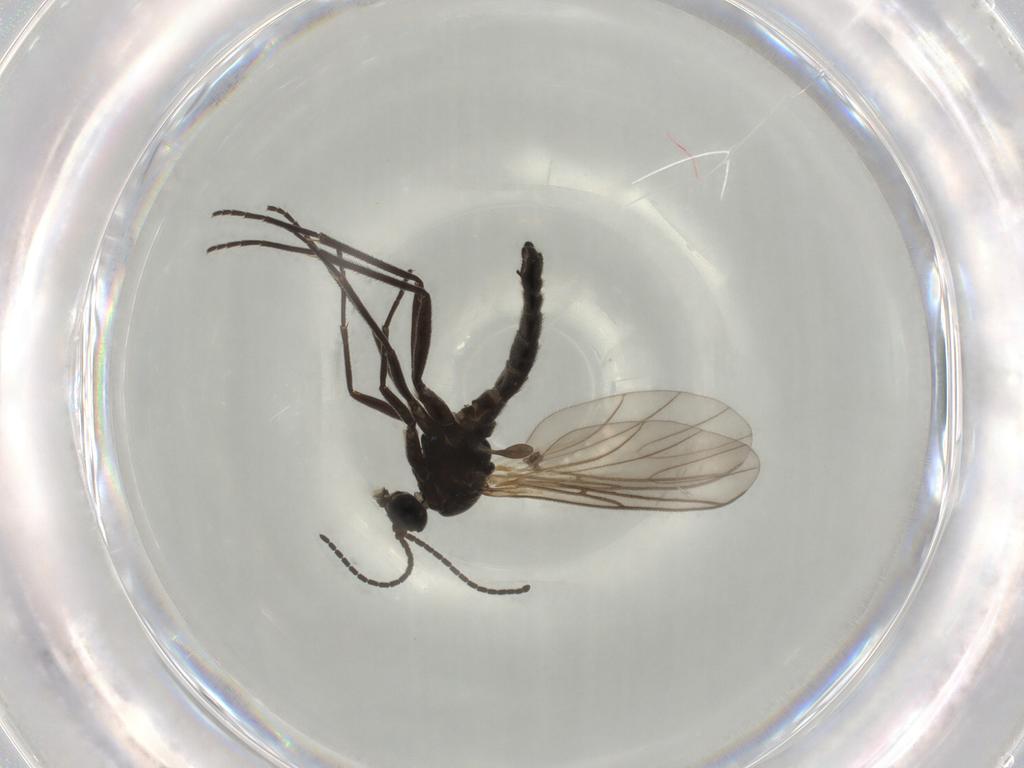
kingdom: Animalia
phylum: Arthropoda
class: Insecta
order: Diptera
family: Sciaridae
